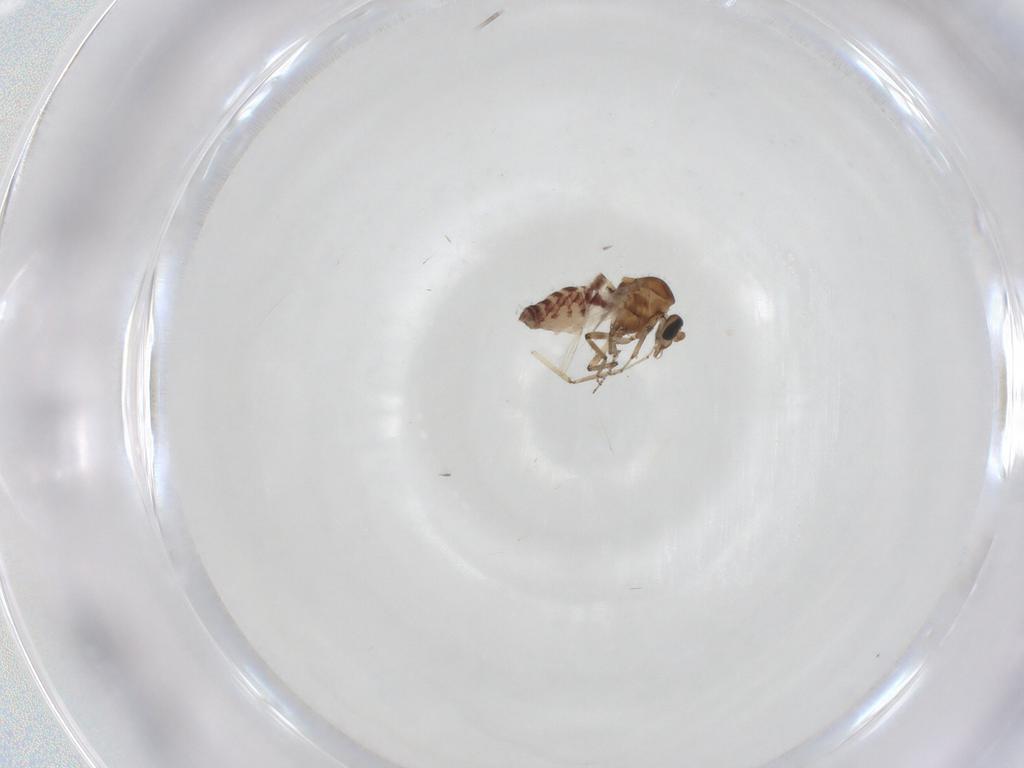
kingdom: Animalia
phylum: Arthropoda
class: Insecta
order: Diptera
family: Ceratopogonidae
